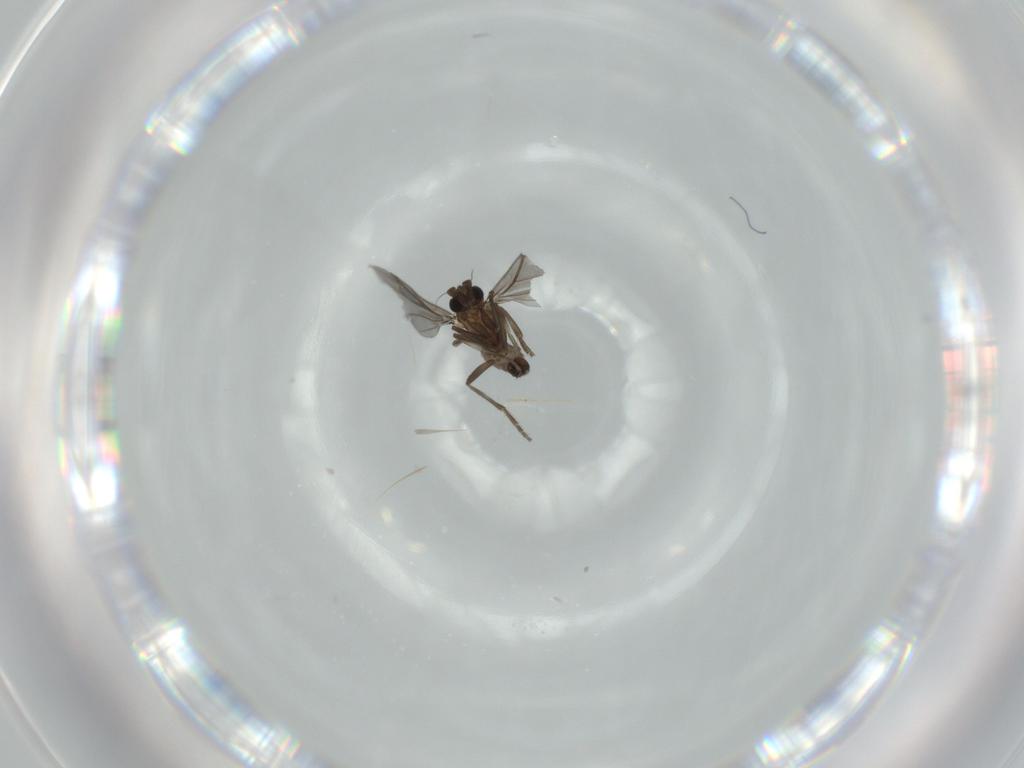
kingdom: Animalia
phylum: Arthropoda
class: Insecta
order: Diptera
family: Phoridae
